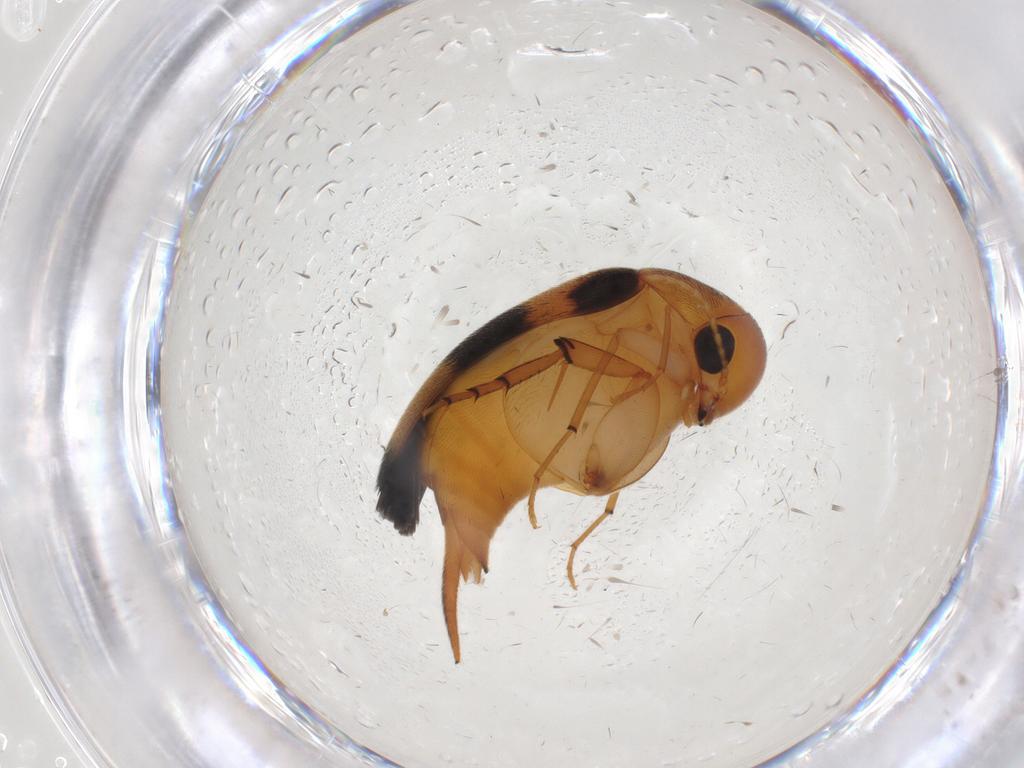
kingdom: Animalia
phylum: Arthropoda
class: Insecta
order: Coleoptera
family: Mordellidae
